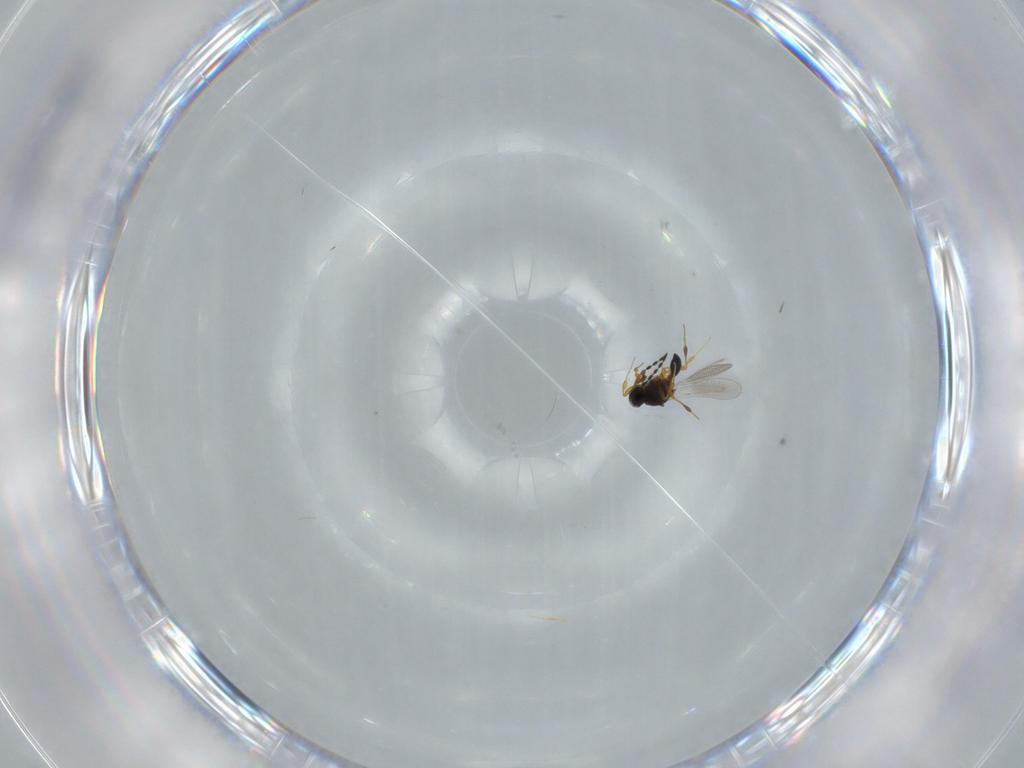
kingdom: Animalia
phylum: Arthropoda
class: Insecta
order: Hymenoptera
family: Platygastridae
